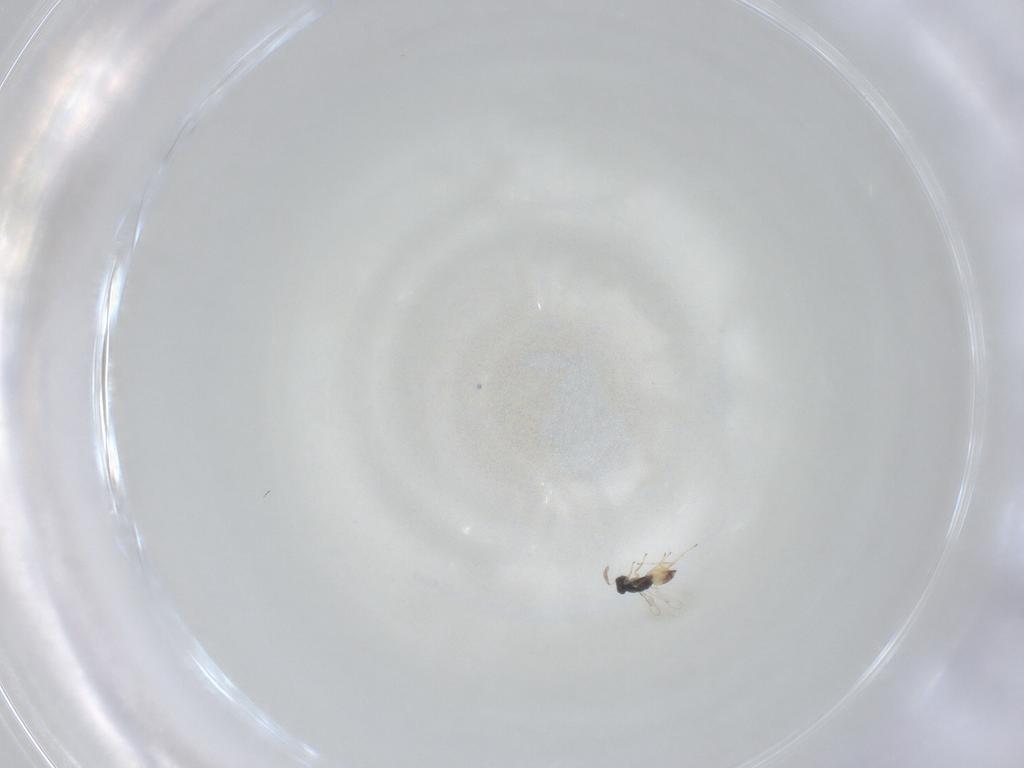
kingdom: Animalia
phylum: Arthropoda
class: Insecta
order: Hymenoptera
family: Eulophidae
